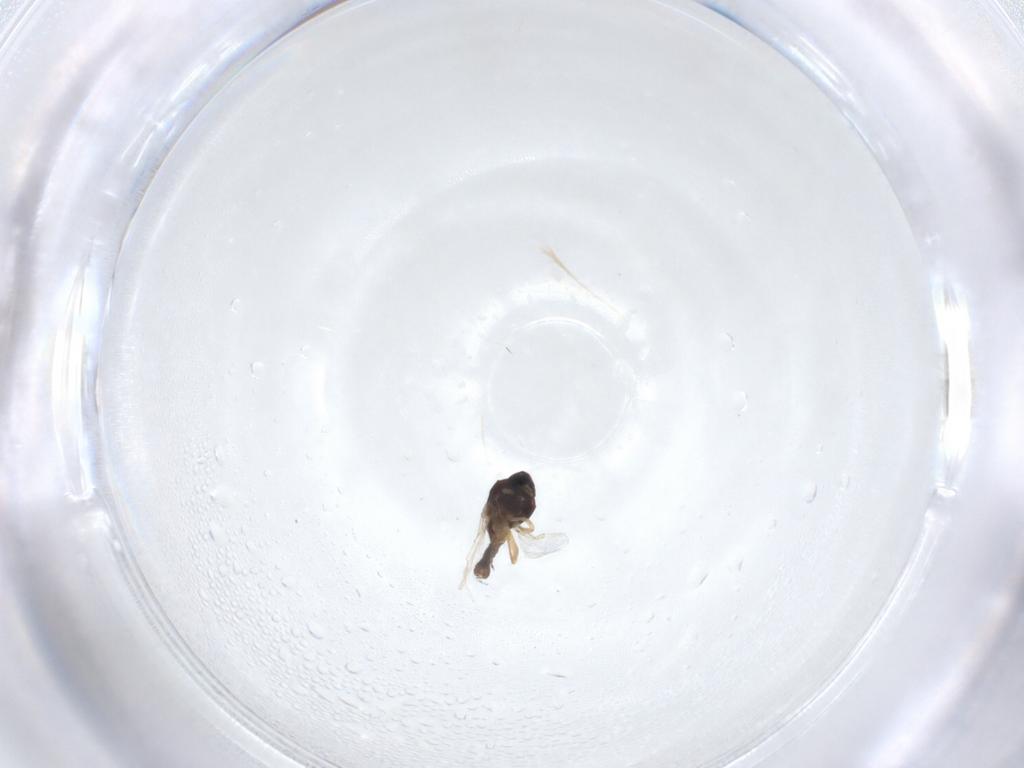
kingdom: Animalia
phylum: Arthropoda
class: Insecta
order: Diptera
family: Ceratopogonidae
